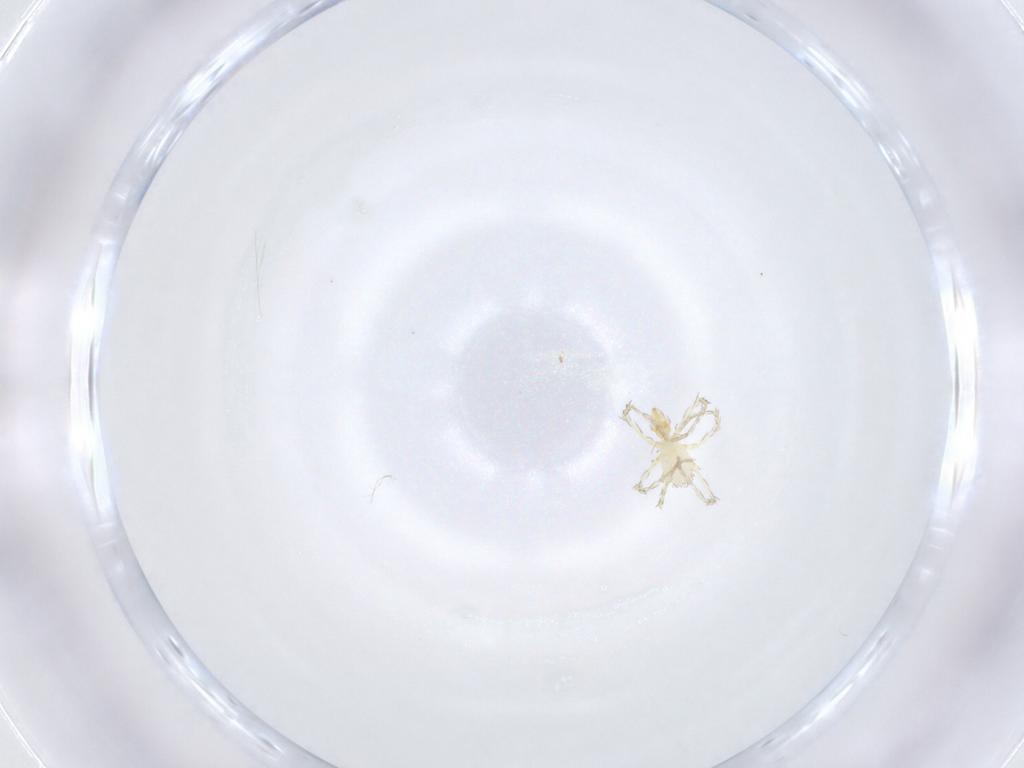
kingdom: Animalia
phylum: Arthropoda
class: Arachnida
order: Trombidiformes
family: Erythraeidae
